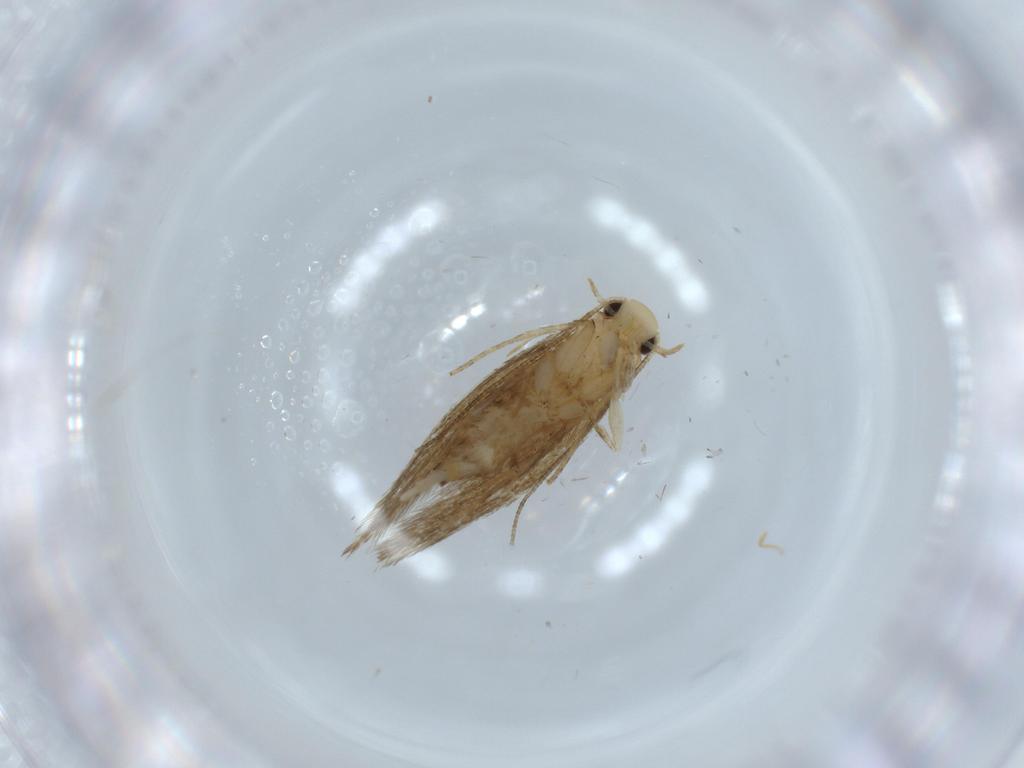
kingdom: Animalia
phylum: Arthropoda
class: Insecta
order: Lepidoptera
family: Tineidae
